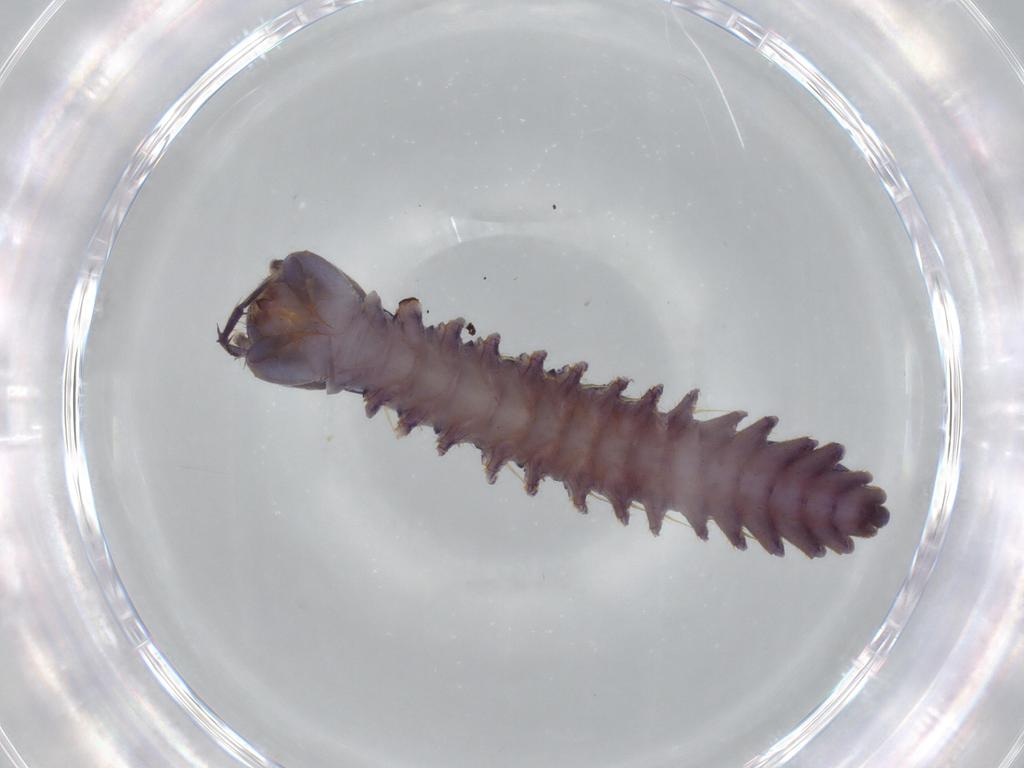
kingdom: Animalia
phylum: Arthropoda
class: Chilopoda
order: Scutigeromorpha
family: Scutigeridae
